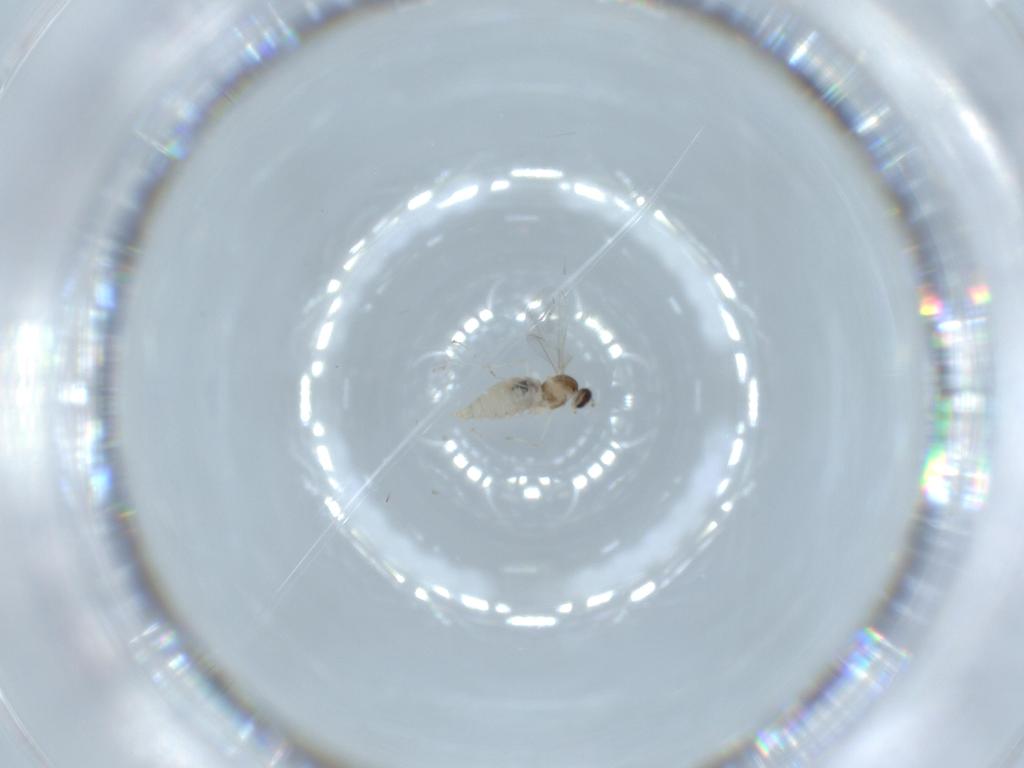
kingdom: Animalia
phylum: Arthropoda
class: Insecta
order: Diptera
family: Cecidomyiidae
